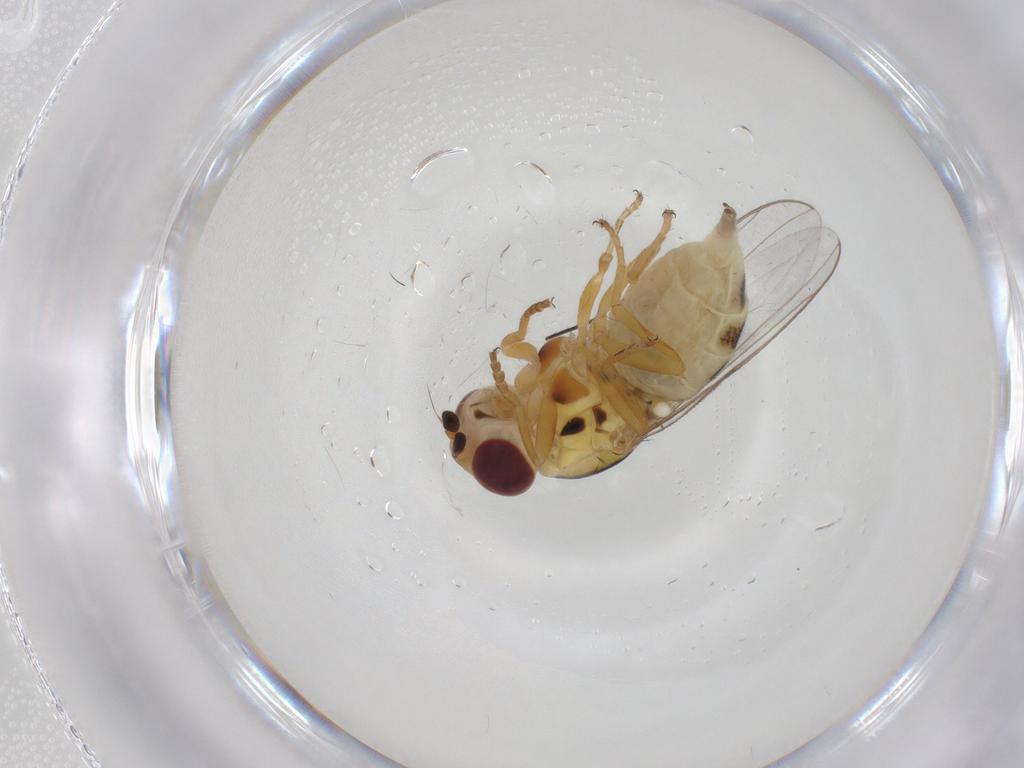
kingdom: Animalia
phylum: Arthropoda
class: Insecta
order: Diptera
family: Chloropidae
